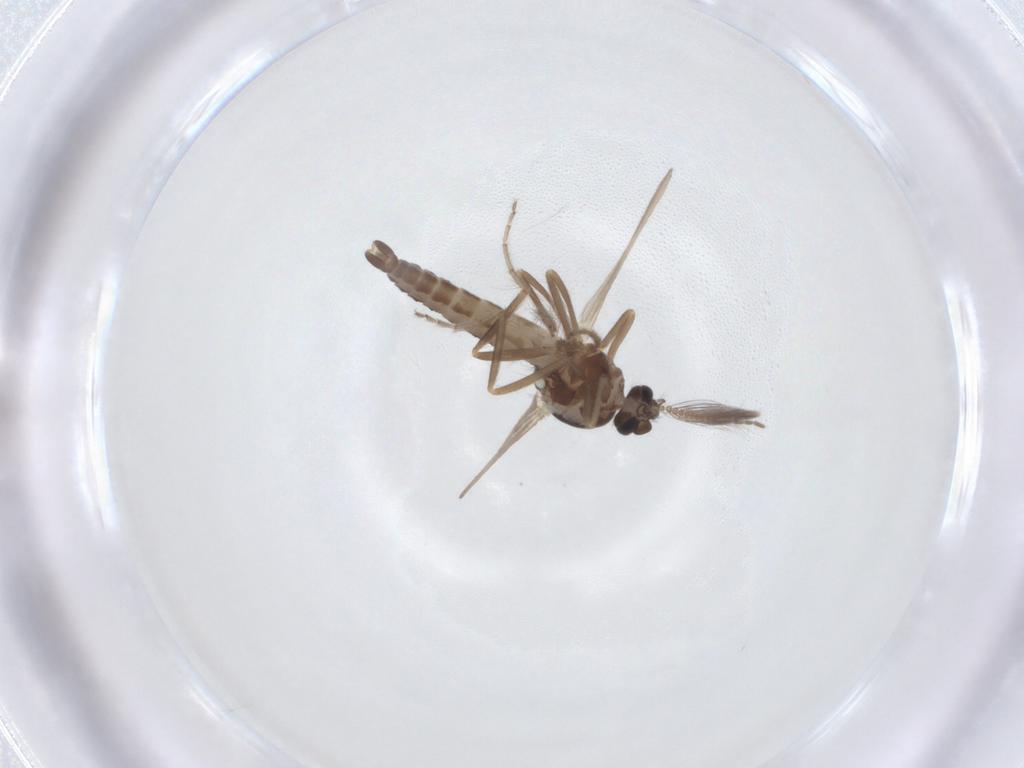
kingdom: Animalia
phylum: Arthropoda
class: Insecta
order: Diptera
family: Ceratopogonidae
